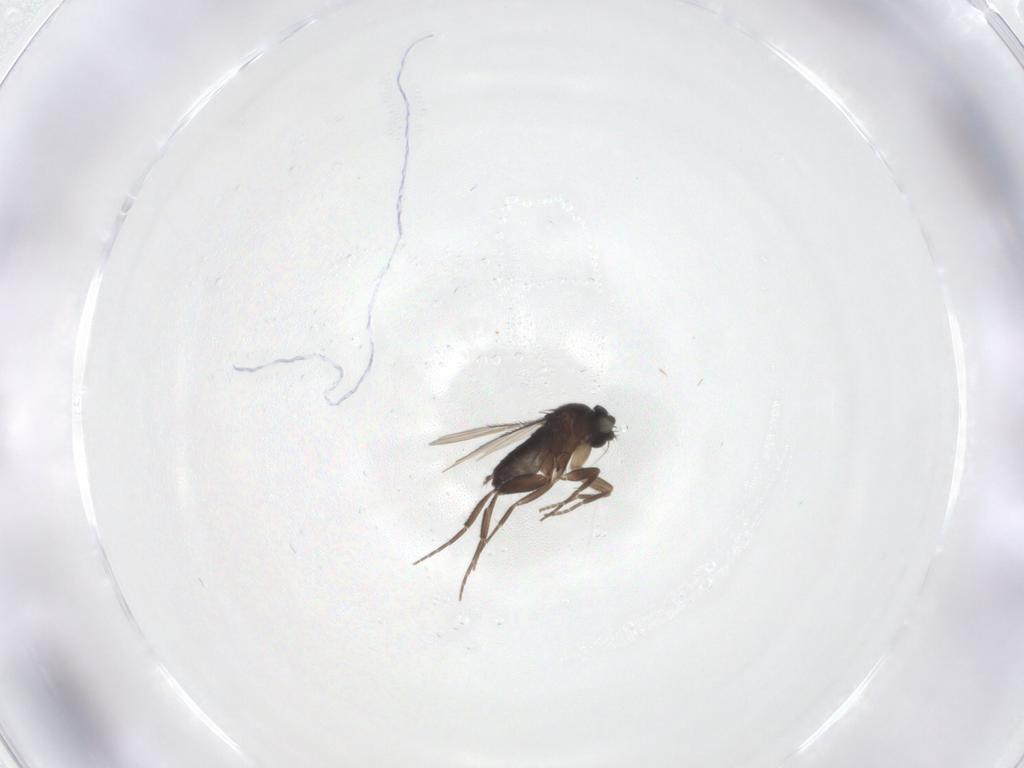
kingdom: Animalia
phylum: Arthropoda
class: Insecta
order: Diptera
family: Phoridae
